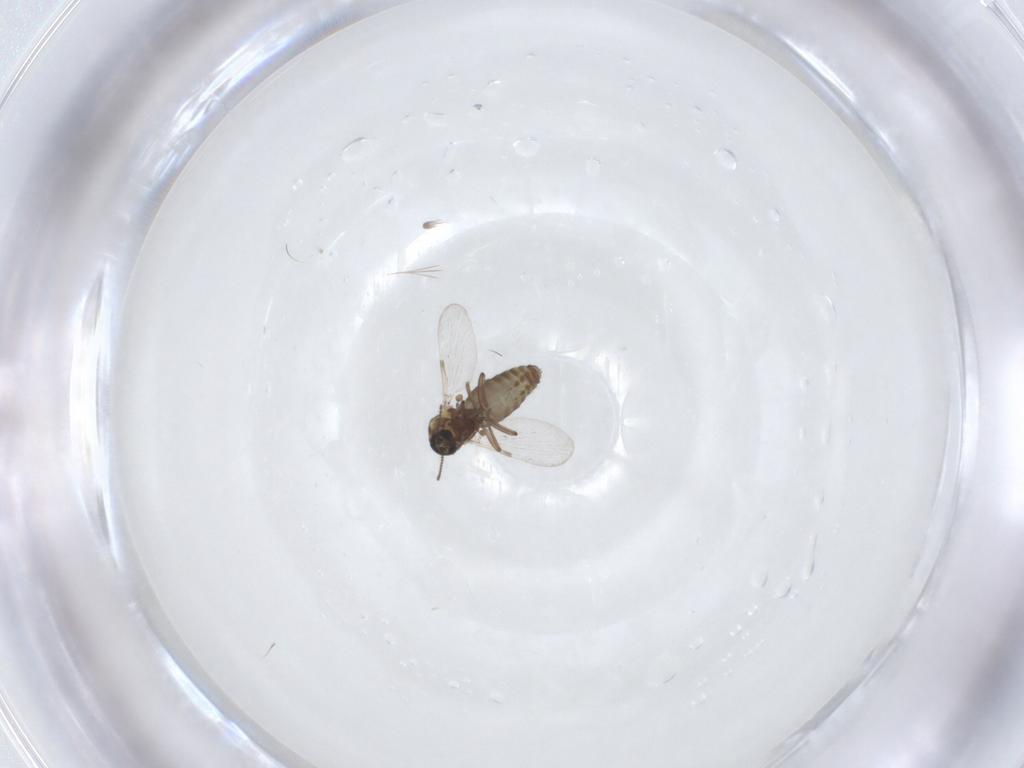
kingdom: Animalia
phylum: Arthropoda
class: Insecta
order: Diptera
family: Ceratopogonidae
